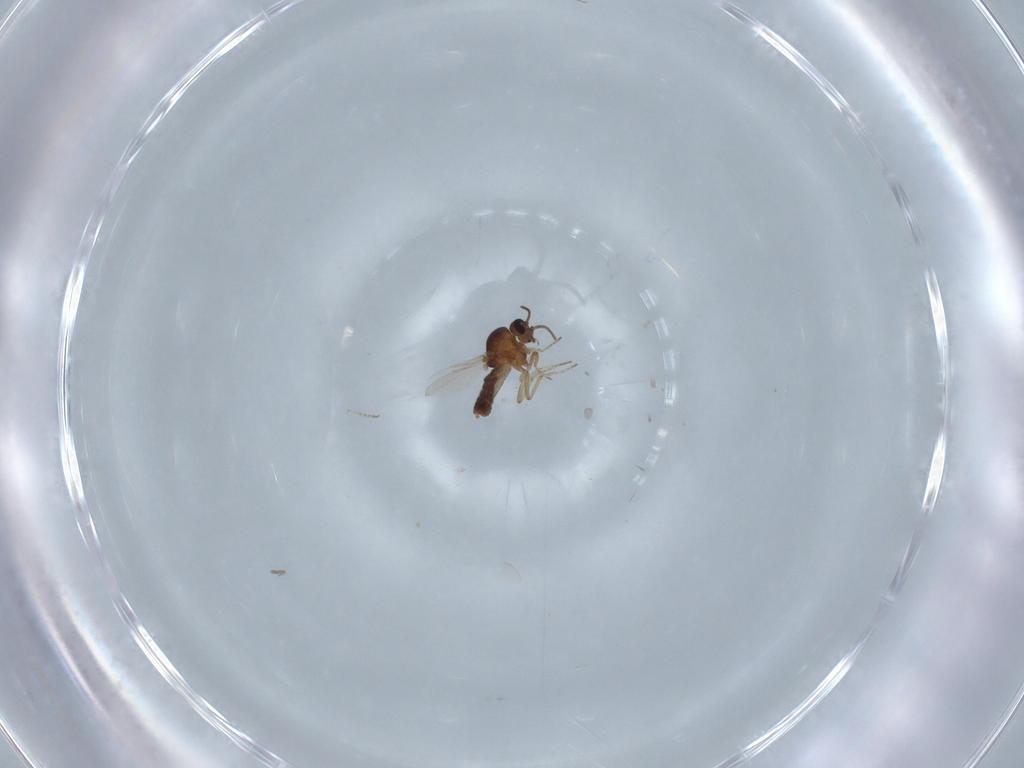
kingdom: Animalia
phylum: Arthropoda
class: Insecta
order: Diptera
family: Ceratopogonidae
